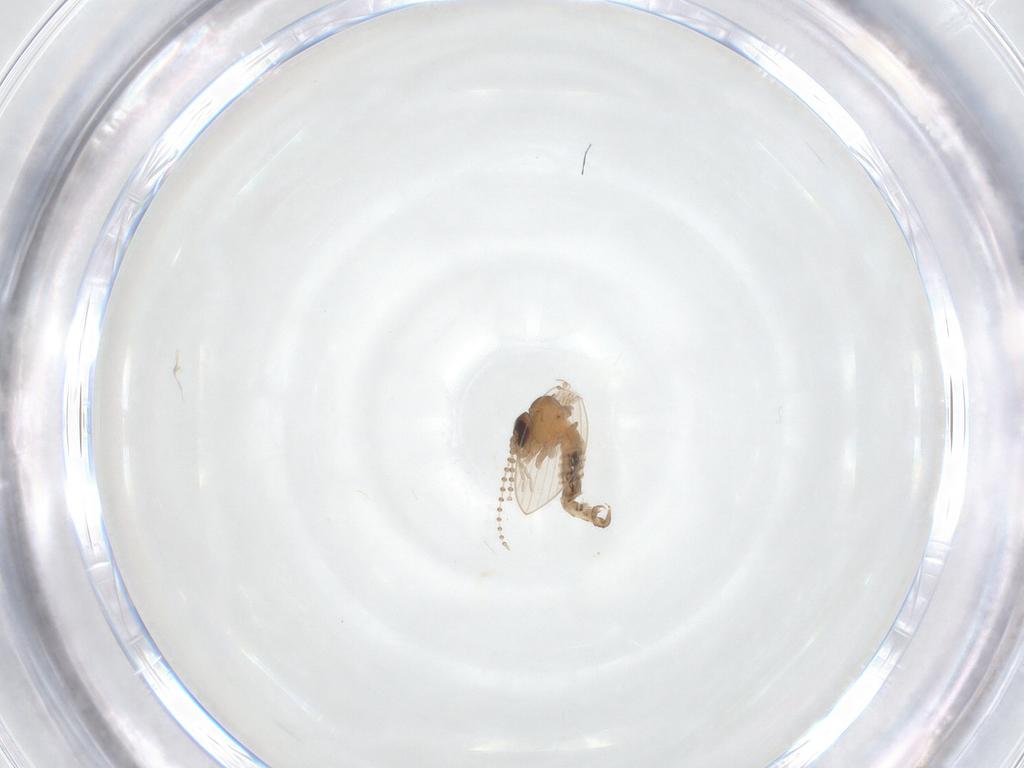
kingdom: Animalia
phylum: Arthropoda
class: Insecta
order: Diptera
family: Psychodidae
